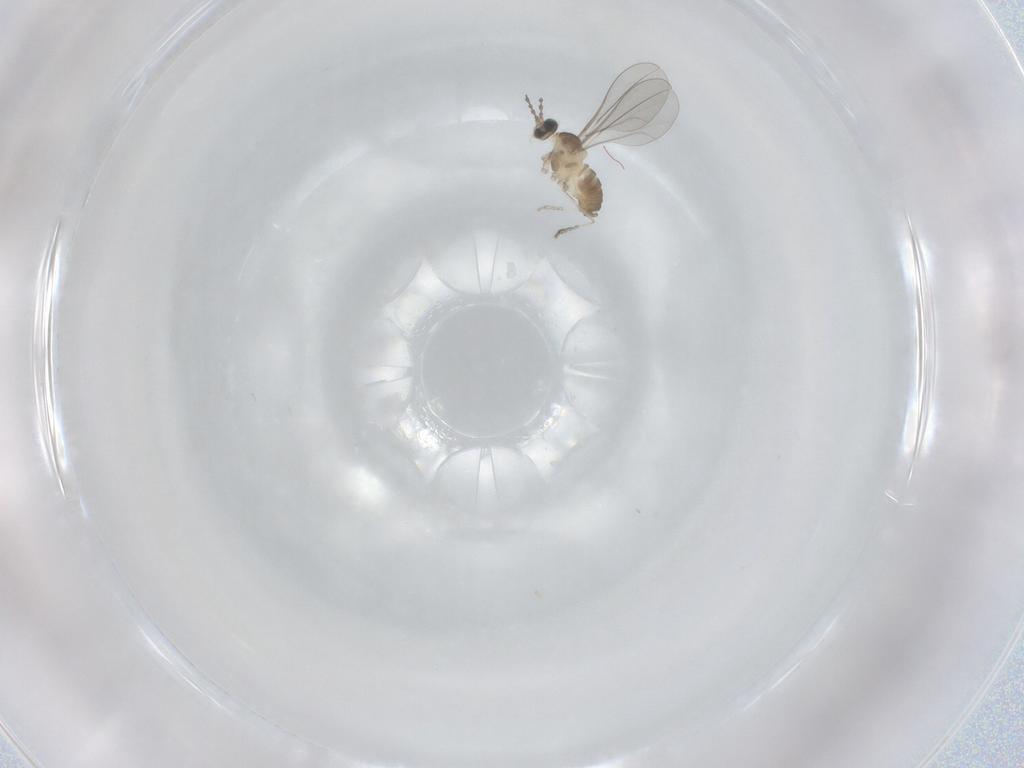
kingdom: Animalia
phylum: Arthropoda
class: Insecta
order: Diptera
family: Cecidomyiidae
